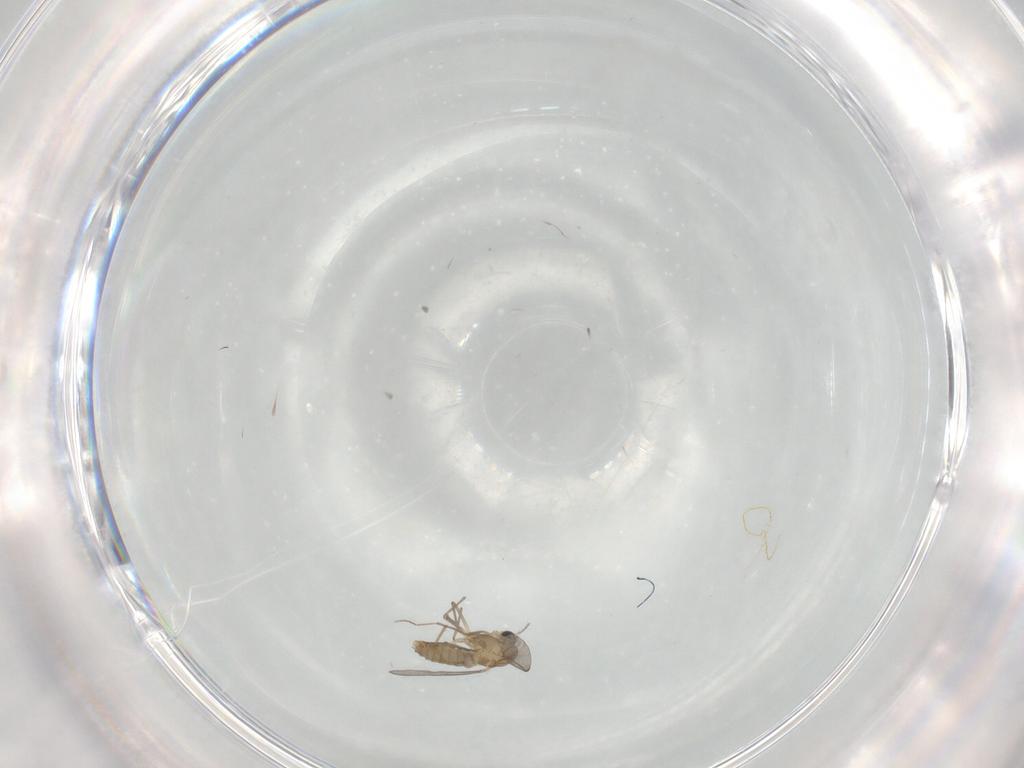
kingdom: Animalia
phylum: Arthropoda
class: Insecta
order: Diptera
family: Chironomidae
